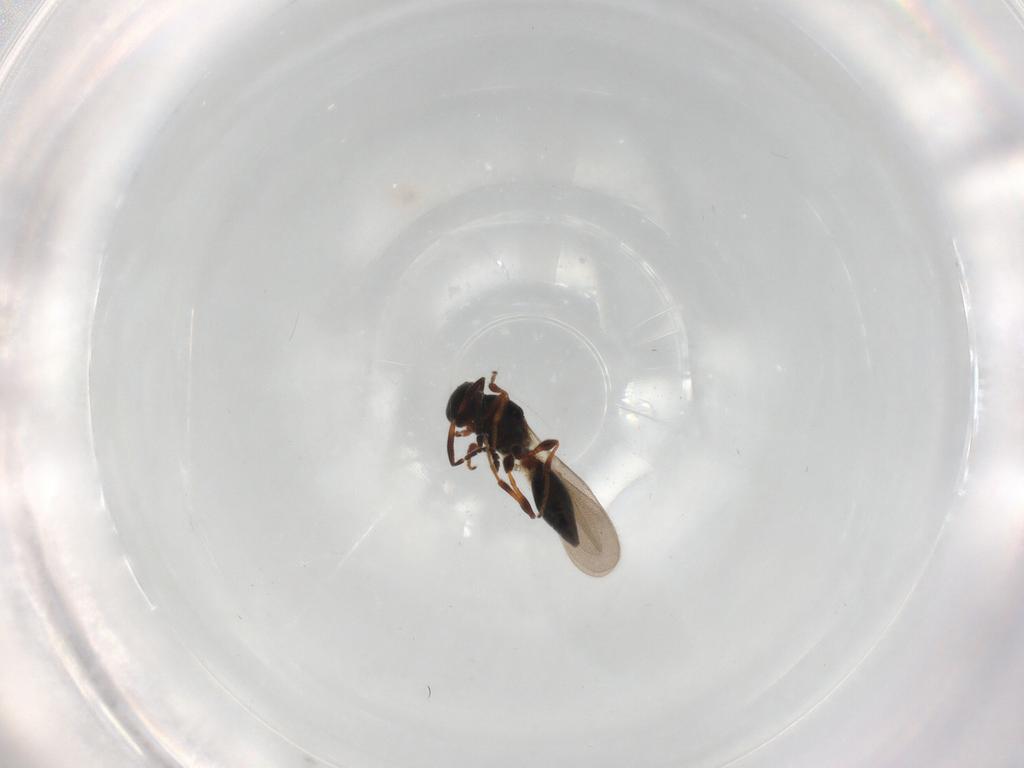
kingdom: Animalia
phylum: Arthropoda
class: Insecta
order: Hymenoptera
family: Platygastridae
